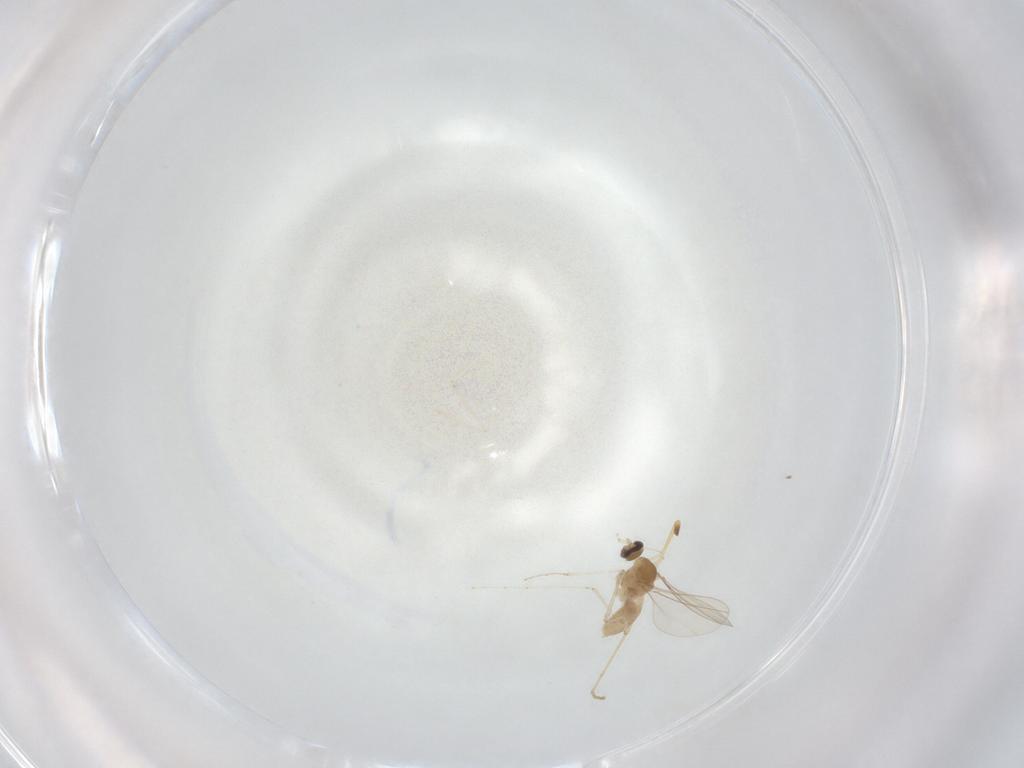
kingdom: Animalia
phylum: Arthropoda
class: Insecta
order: Diptera
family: Cecidomyiidae
